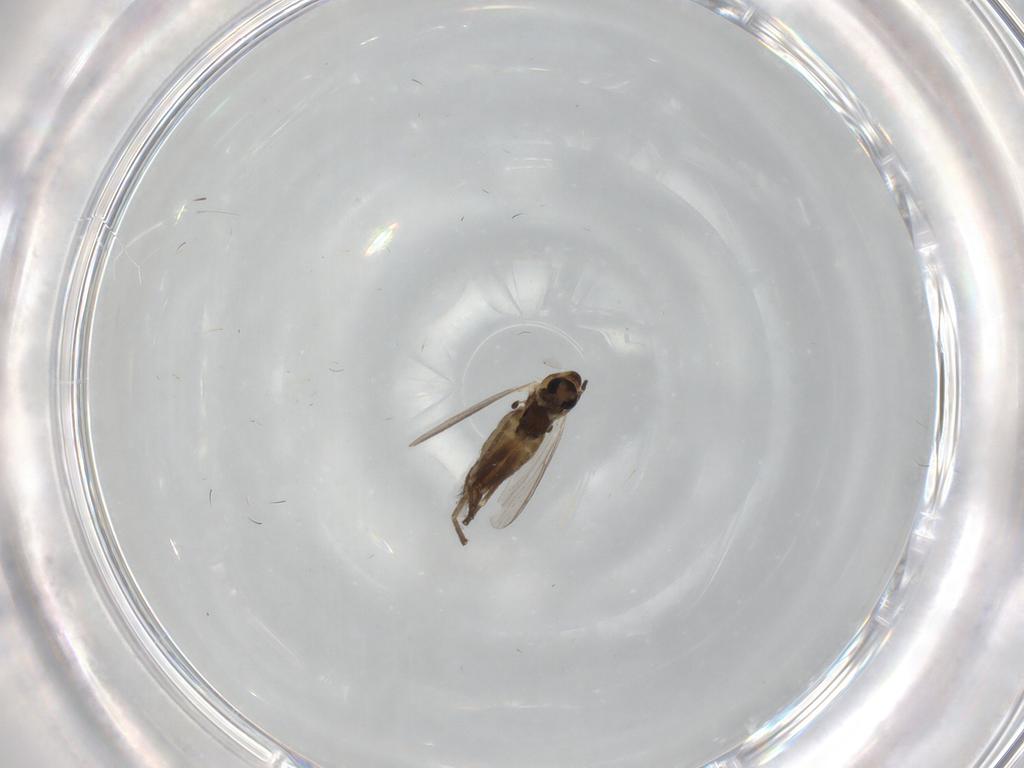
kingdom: Animalia
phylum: Arthropoda
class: Insecta
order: Diptera
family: Chironomidae
